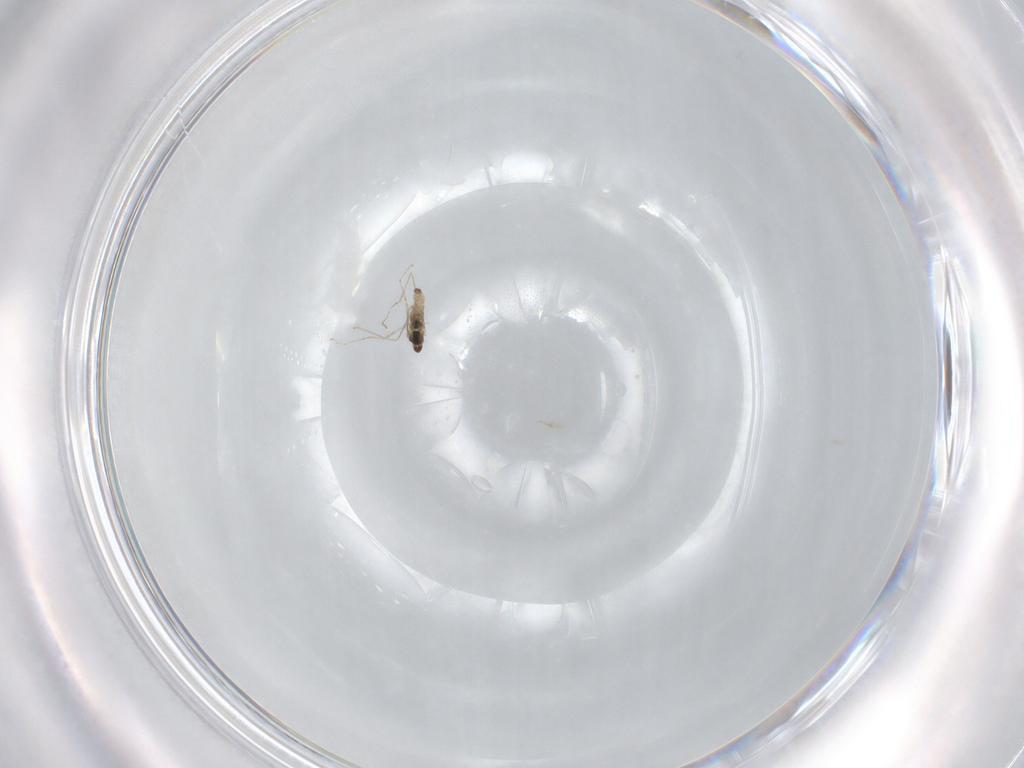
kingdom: Animalia
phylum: Arthropoda
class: Insecta
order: Diptera
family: Cecidomyiidae
